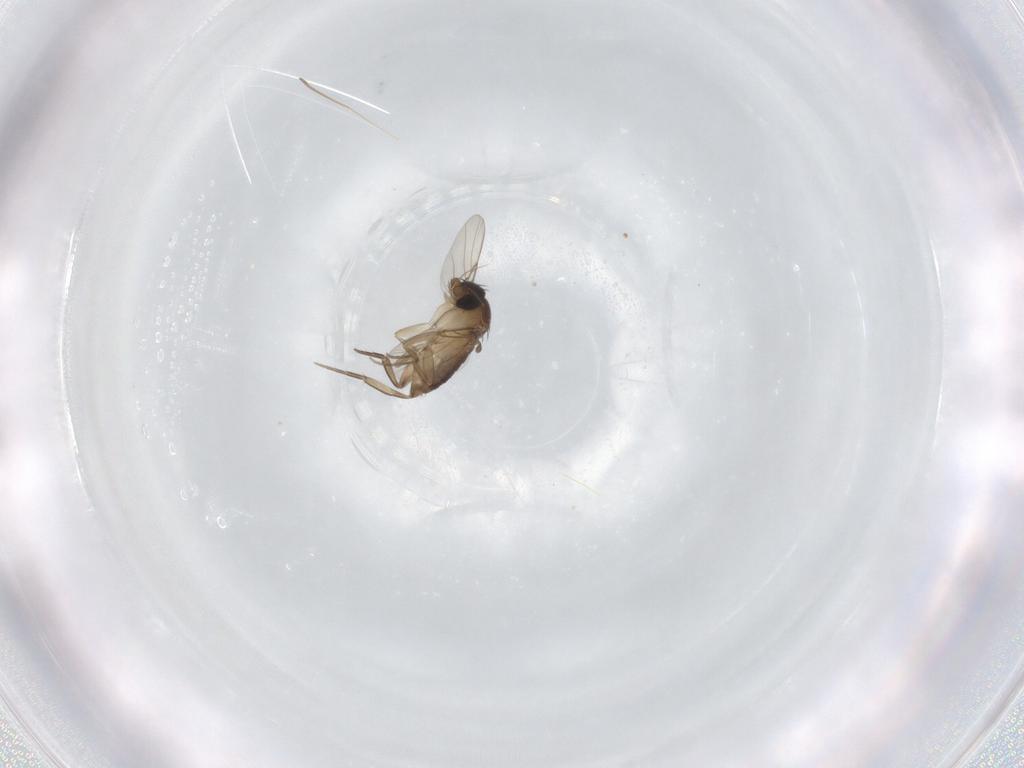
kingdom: Animalia
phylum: Arthropoda
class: Insecta
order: Diptera
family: Phoridae
